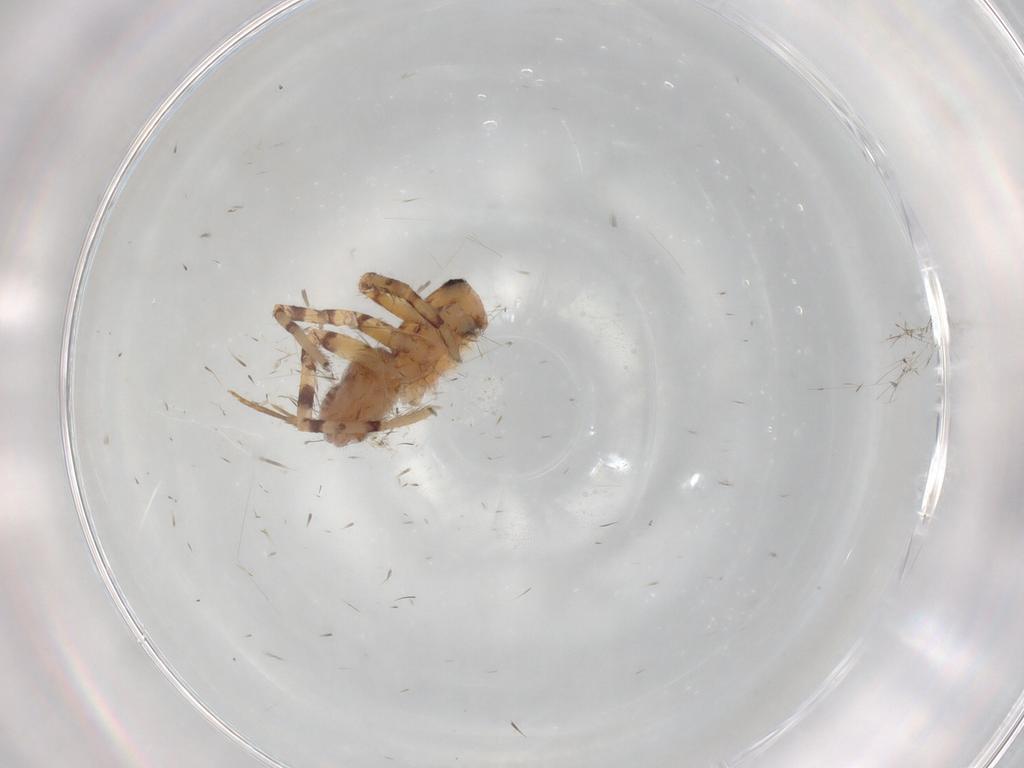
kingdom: Animalia
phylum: Arthropoda
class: Arachnida
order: Araneae
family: Corinnidae
